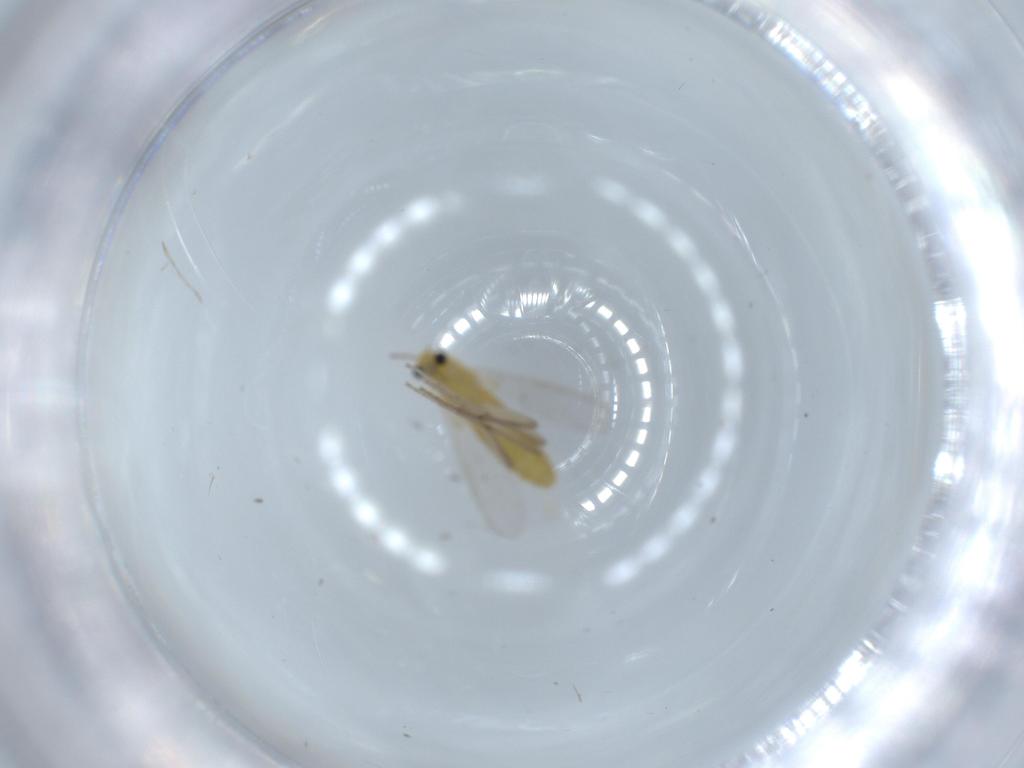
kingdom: Animalia
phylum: Arthropoda
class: Insecta
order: Diptera
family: Chironomidae
